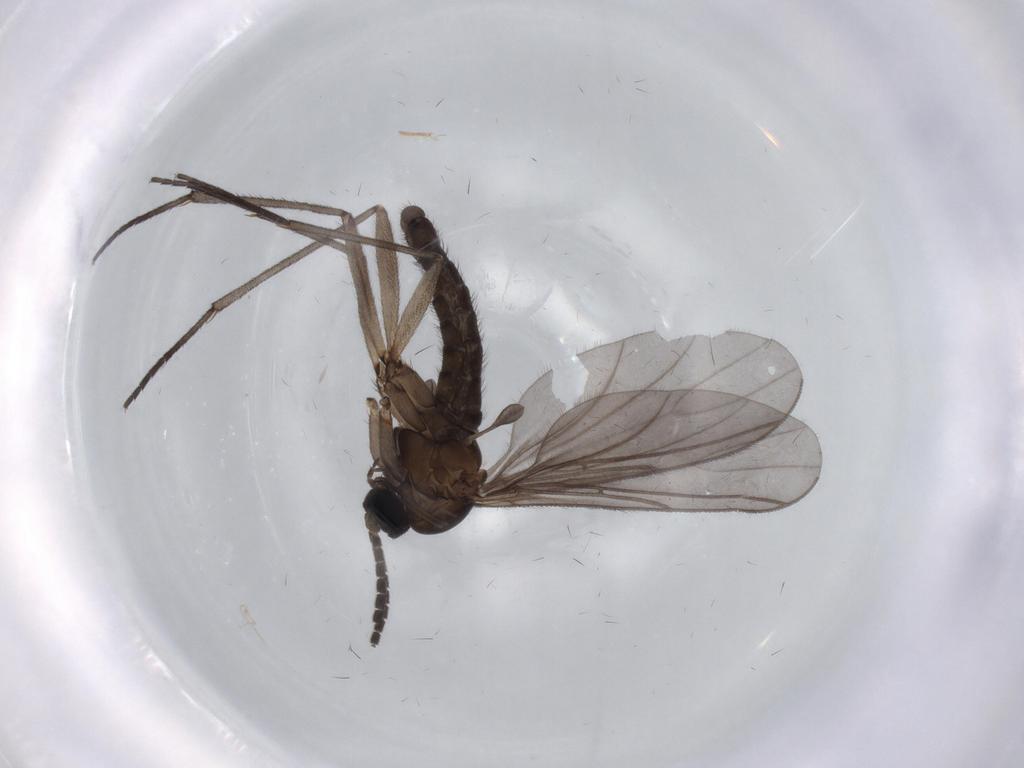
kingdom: Animalia
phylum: Arthropoda
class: Insecta
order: Diptera
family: Sciaridae
